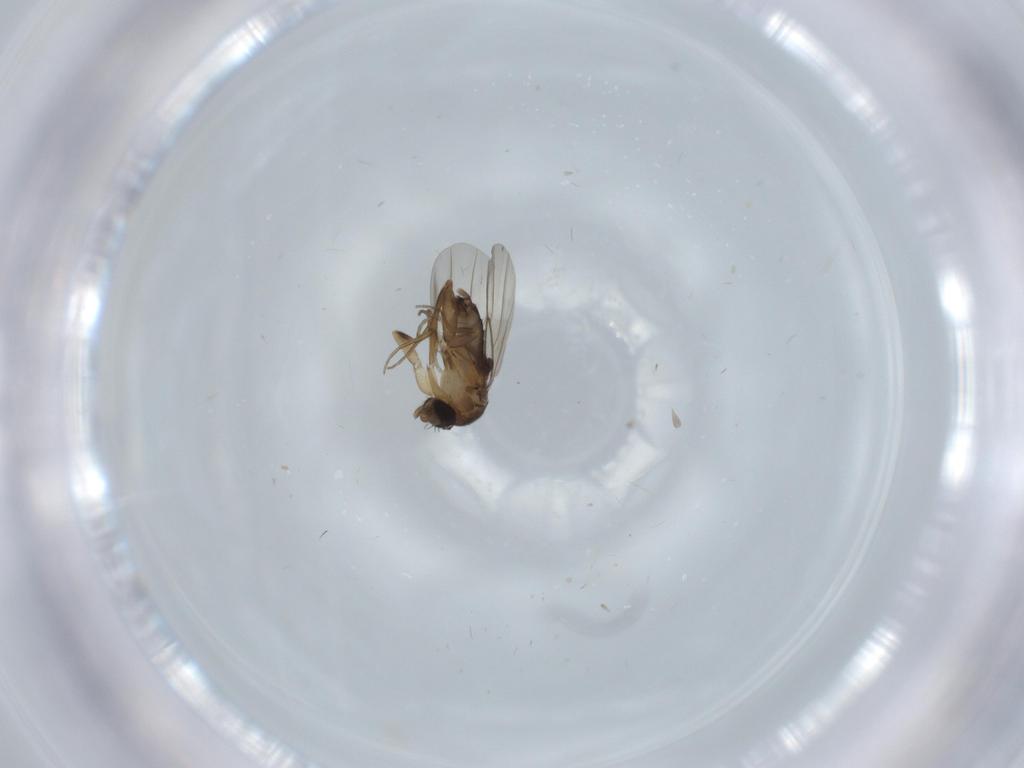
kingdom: Animalia
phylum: Arthropoda
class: Insecta
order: Diptera
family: Phoridae
